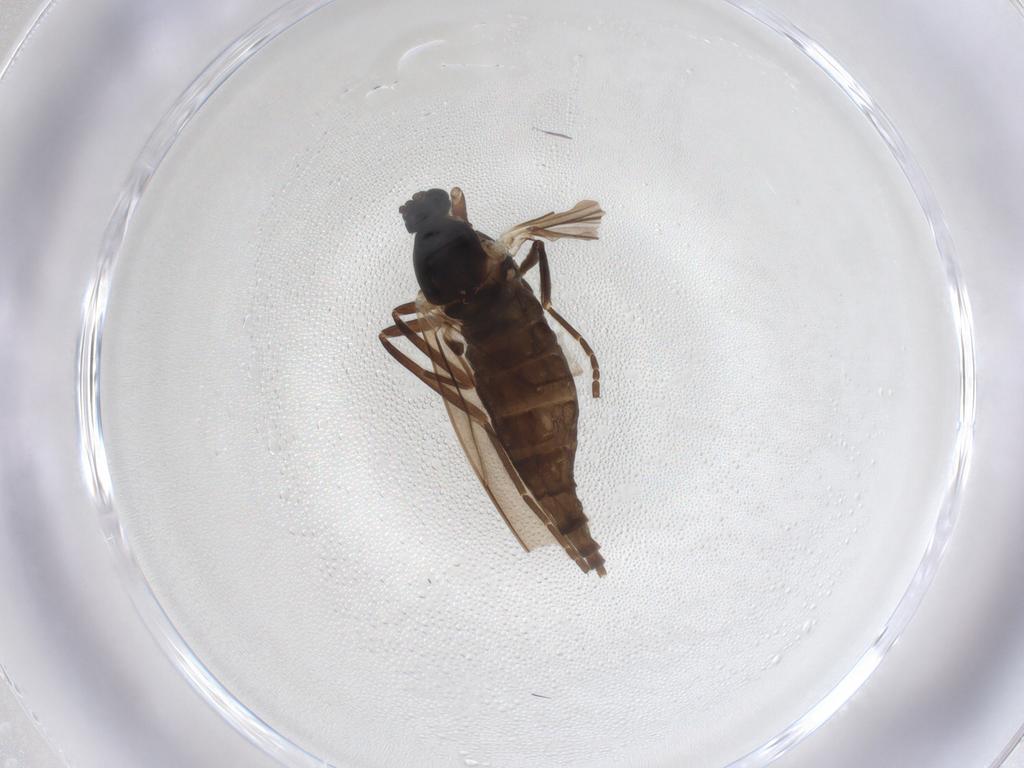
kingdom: Animalia
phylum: Arthropoda
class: Insecta
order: Diptera
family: Cecidomyiidae
